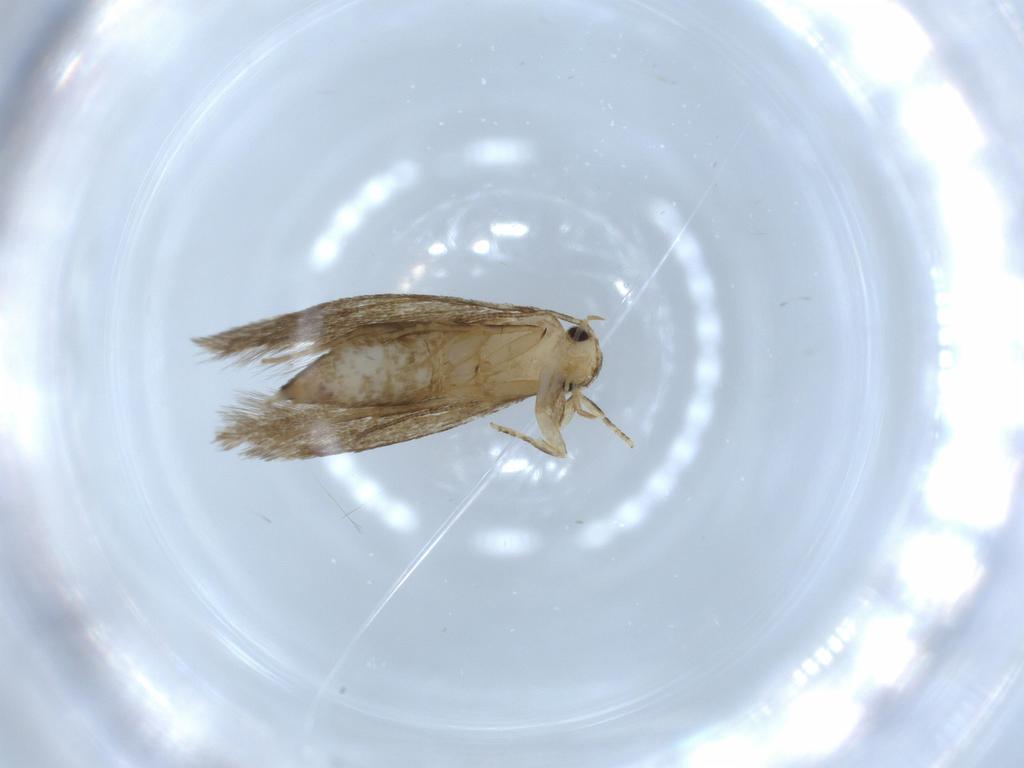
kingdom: Animalia
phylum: Arthropoda
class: Insecta
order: Lepidoptera
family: Tineidae
